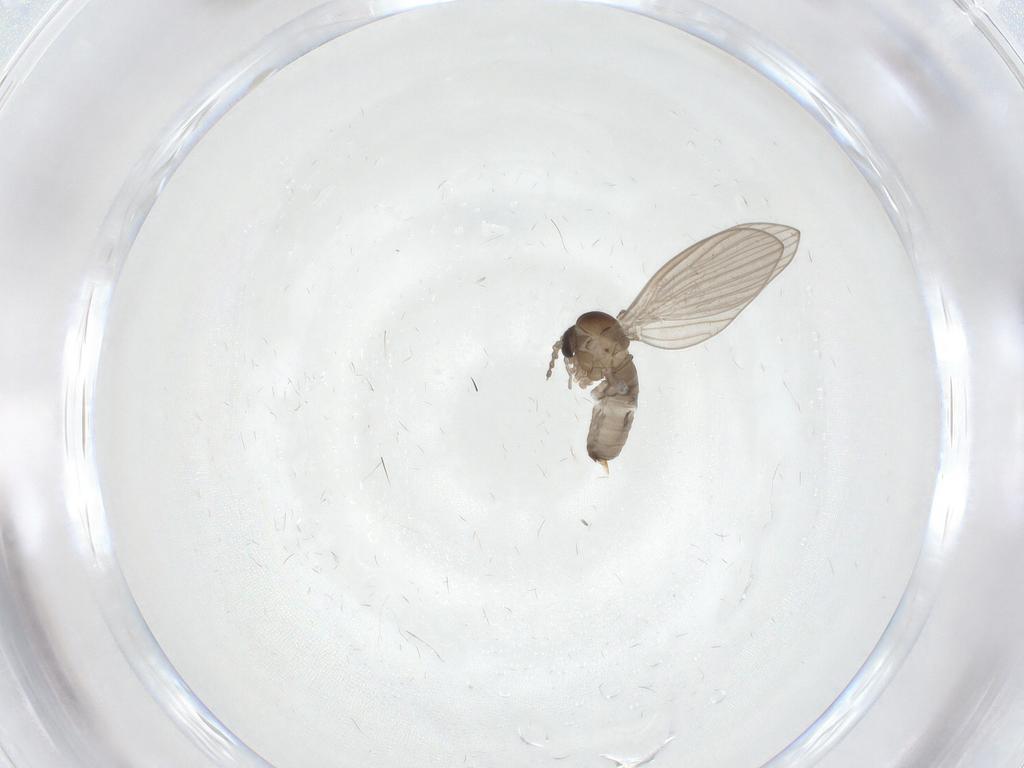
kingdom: Animalia
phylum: Arthropoda
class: Insecta
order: Diptera
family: Psychodidae
